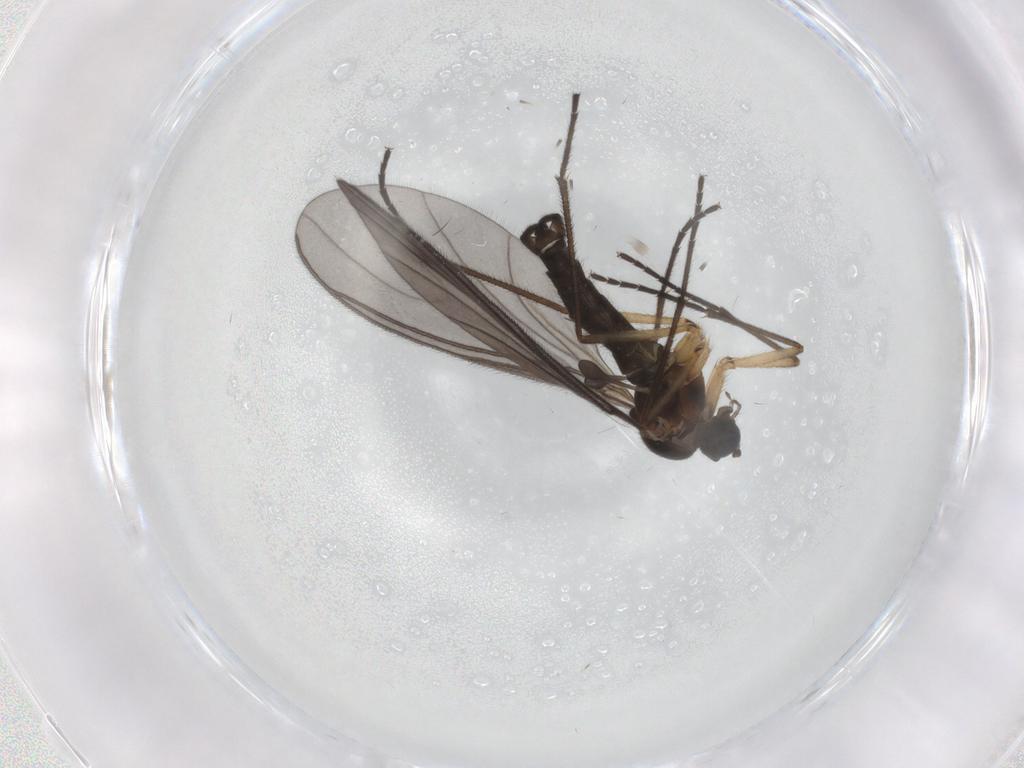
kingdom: Animalia
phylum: Arthropoda
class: Insecta
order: Diptera
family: Sciaridae
